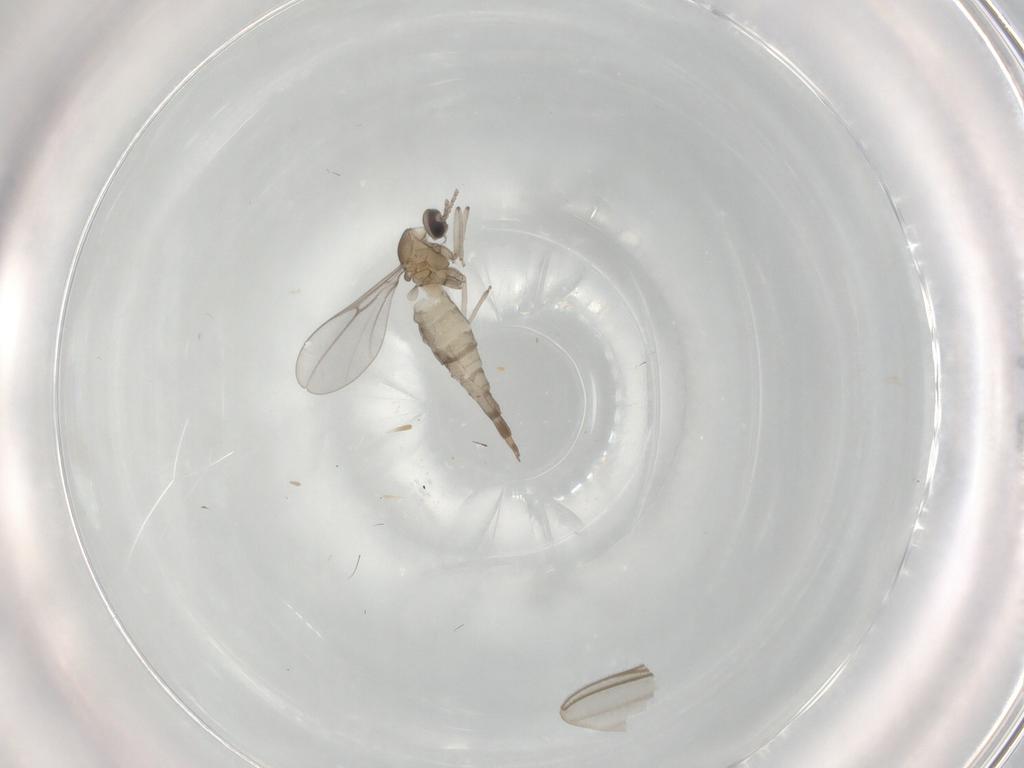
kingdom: Animalia
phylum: Arthropoda
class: Insecta
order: Diptera
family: Cecidomyiidae
